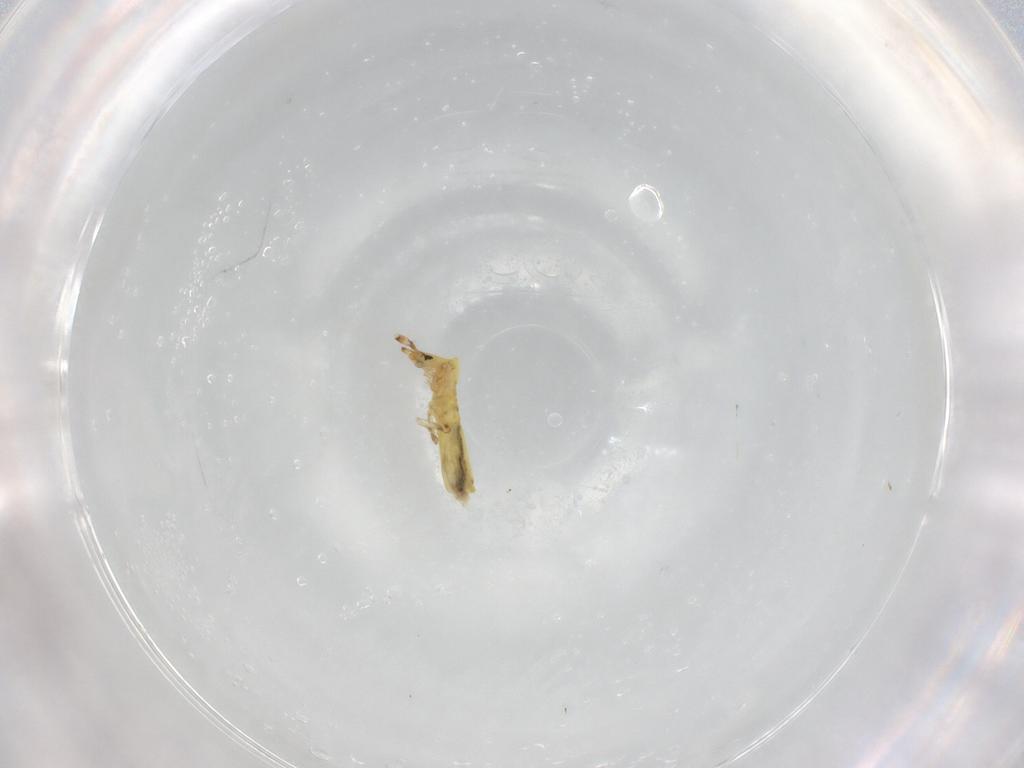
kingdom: Animalia
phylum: Arthropoda
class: Collembola
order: Entomobryomorpha
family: Entomobryidae
